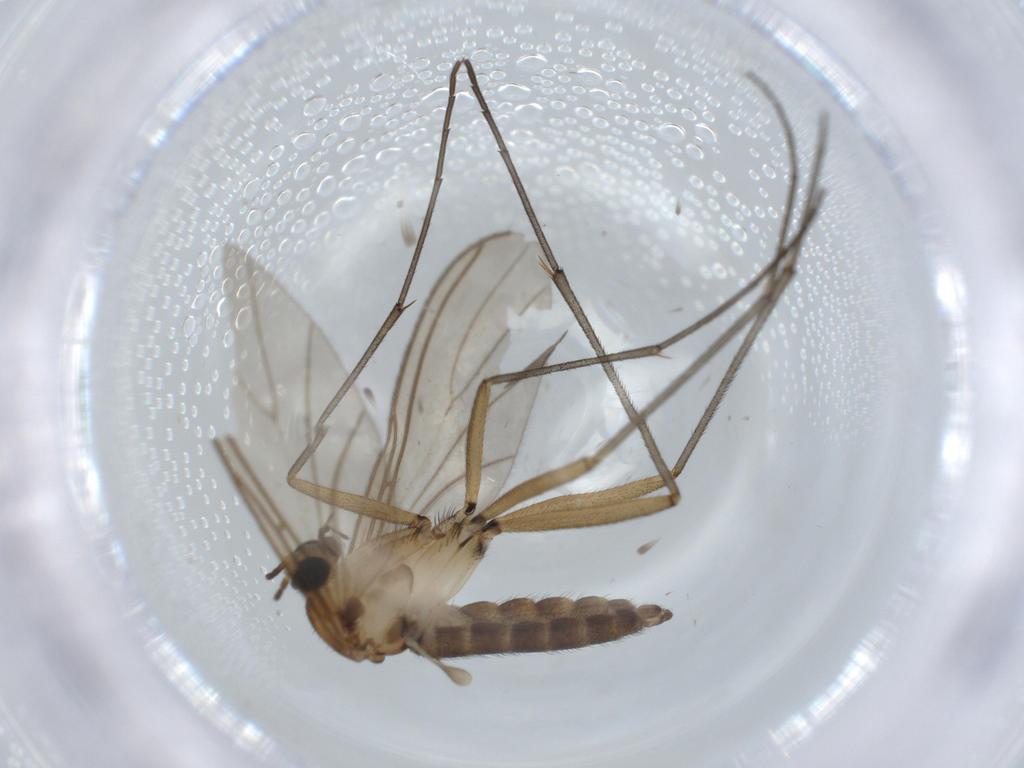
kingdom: Animalia
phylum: Arthropoda
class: Insecta
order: Diptera
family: Sciaridae
